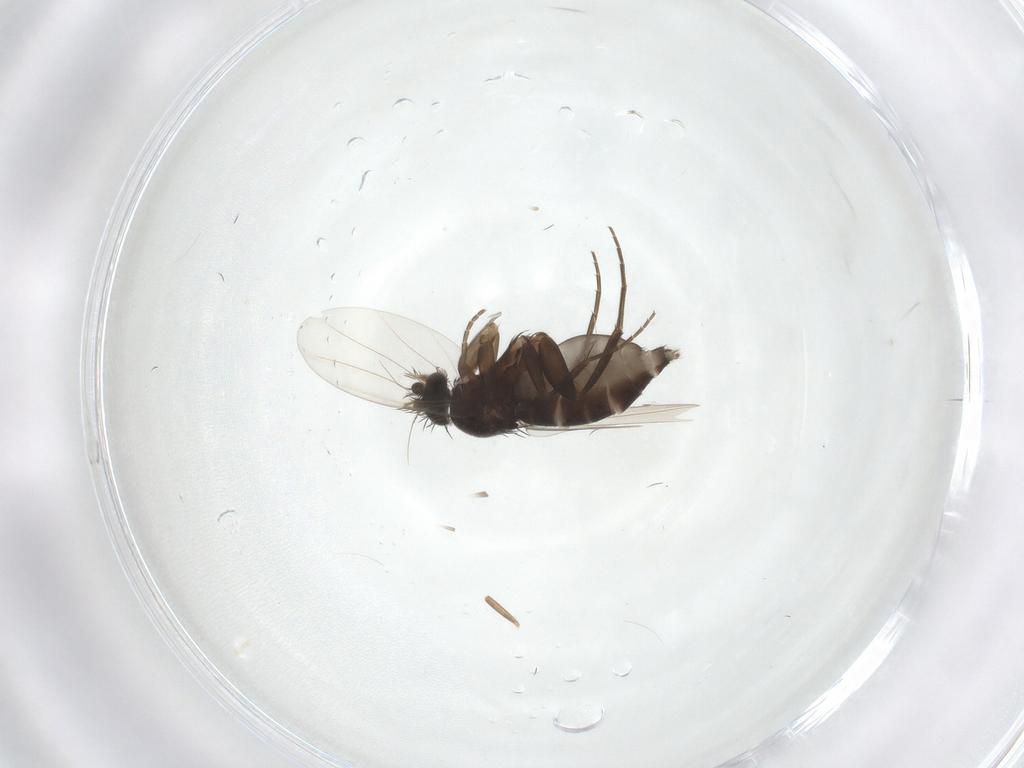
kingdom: Animalia
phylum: Arthropoda
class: Insecta
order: Diptera
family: Phoridae
